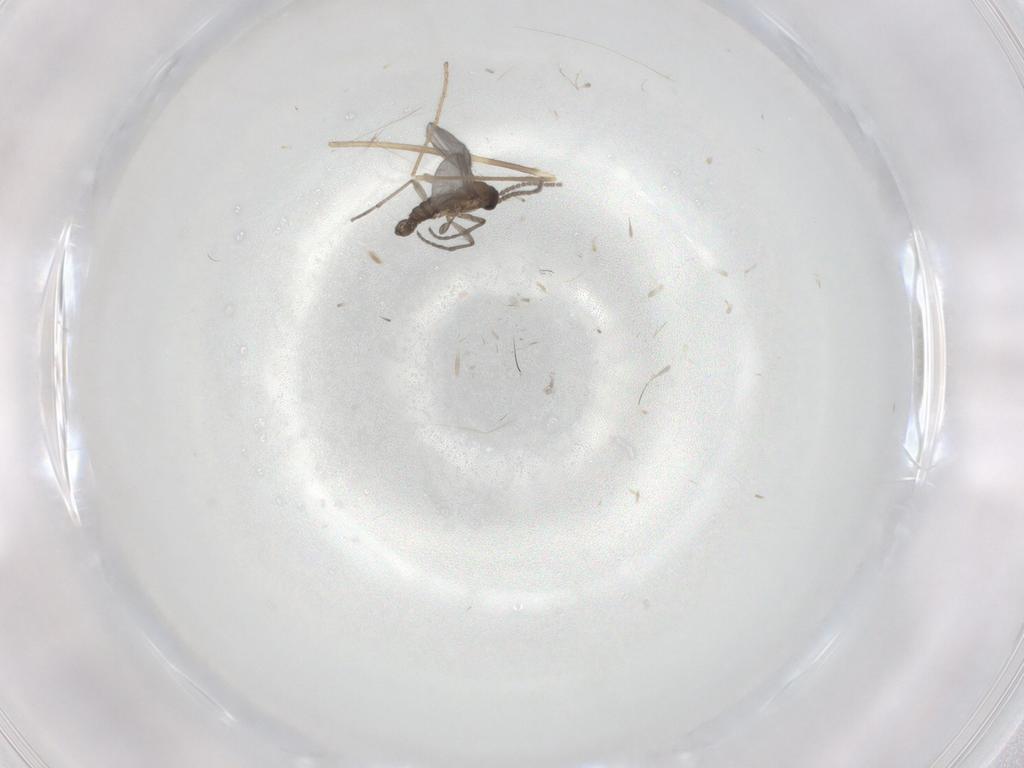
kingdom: Animalia
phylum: Arthropoda
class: Insecta
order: Diptera
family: Sciaridae
